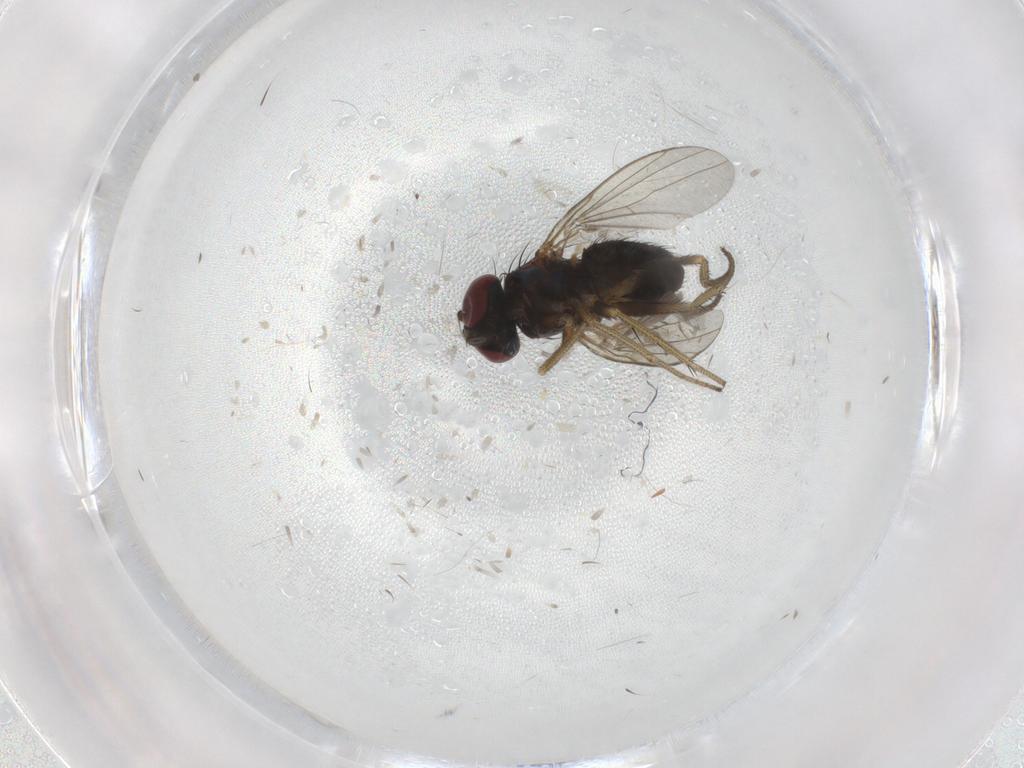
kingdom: Animalia
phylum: Arthropoda
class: Insecta
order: Diptera
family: Dolichopodidae
